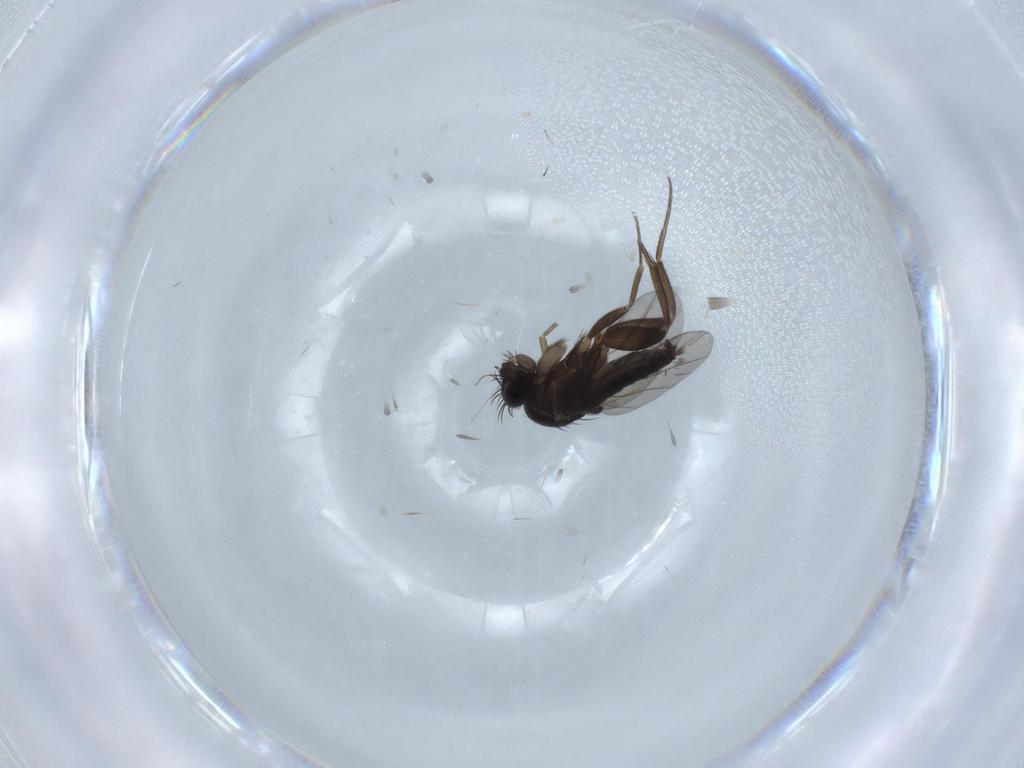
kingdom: Animalia
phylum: Arthropoda
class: Insecta
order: Diptera
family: Phoridae
